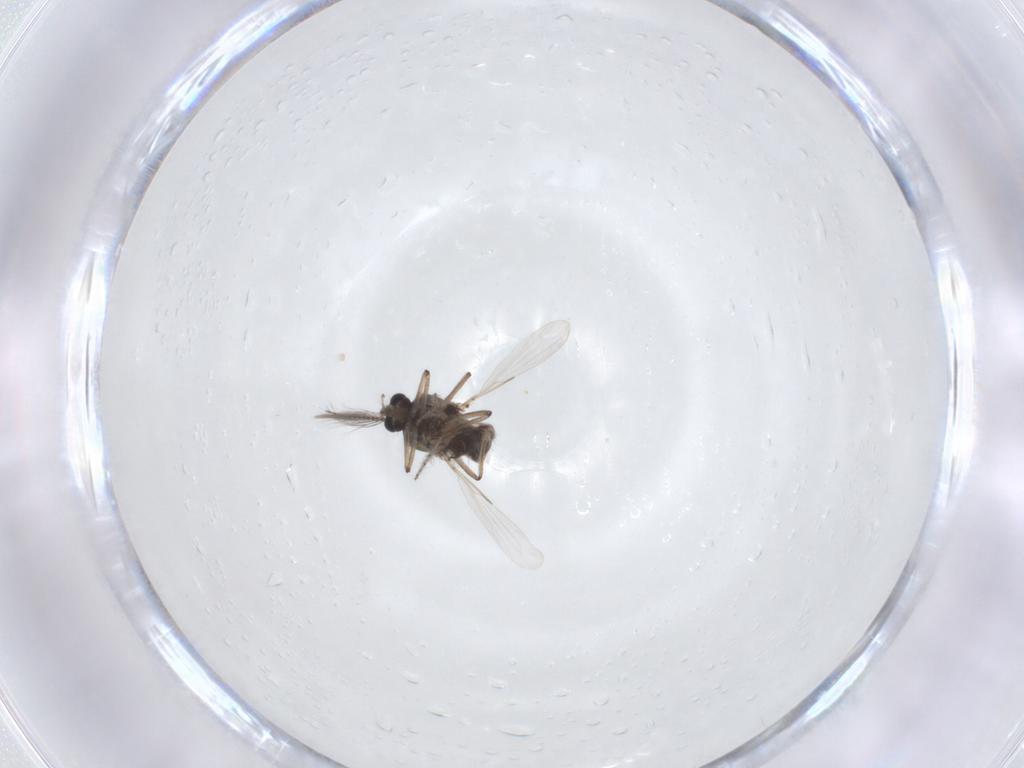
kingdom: Animalia
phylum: Arthropoda
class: Insecta
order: Diptera
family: Ceratopogonidae
